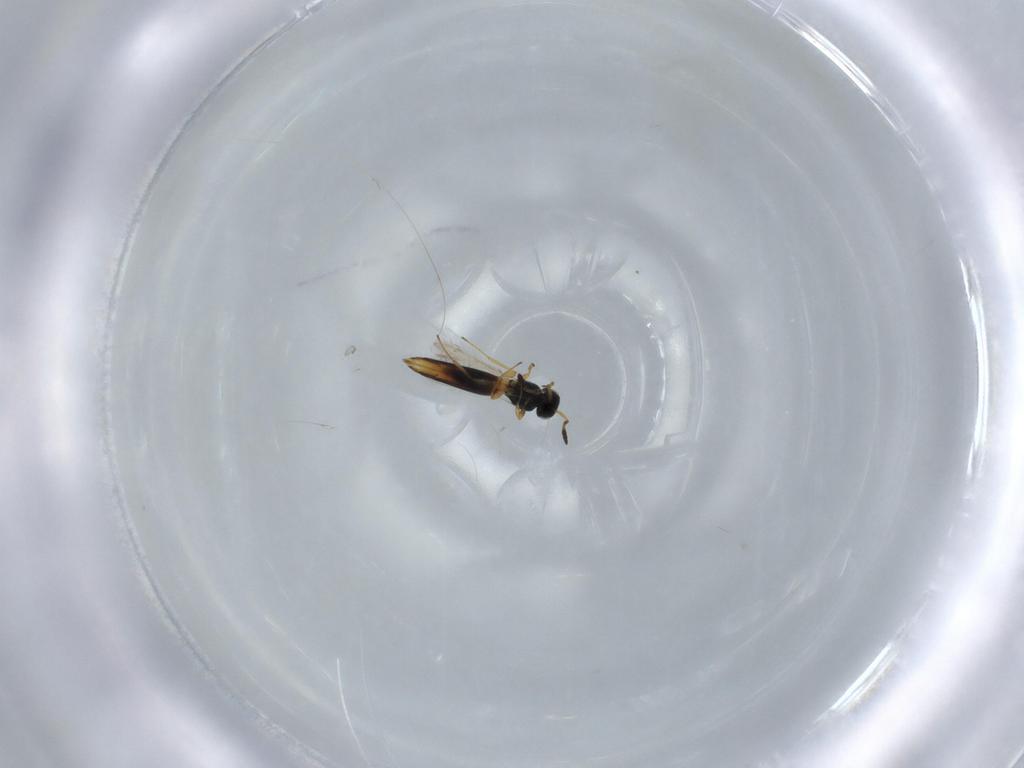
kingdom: Animalia
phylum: Arthropoda
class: Insecta
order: Hymenoptera
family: Scelionidae
